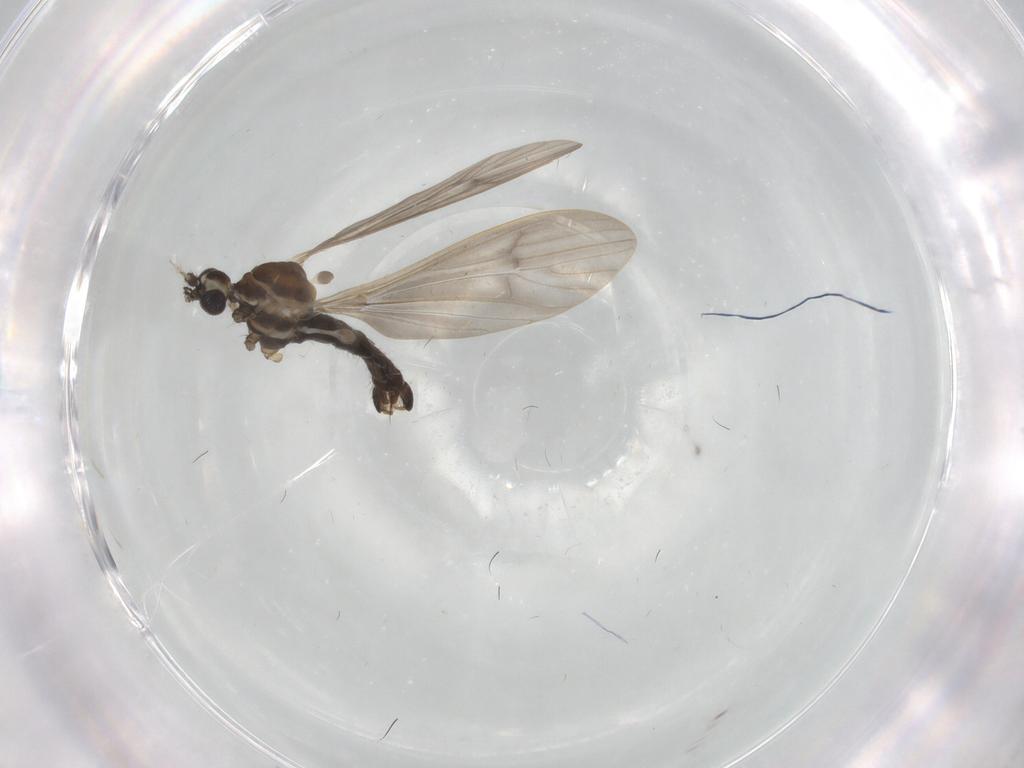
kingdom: Animalia
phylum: Arthropoda
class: Insecta
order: Diptera
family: Limoniidae
